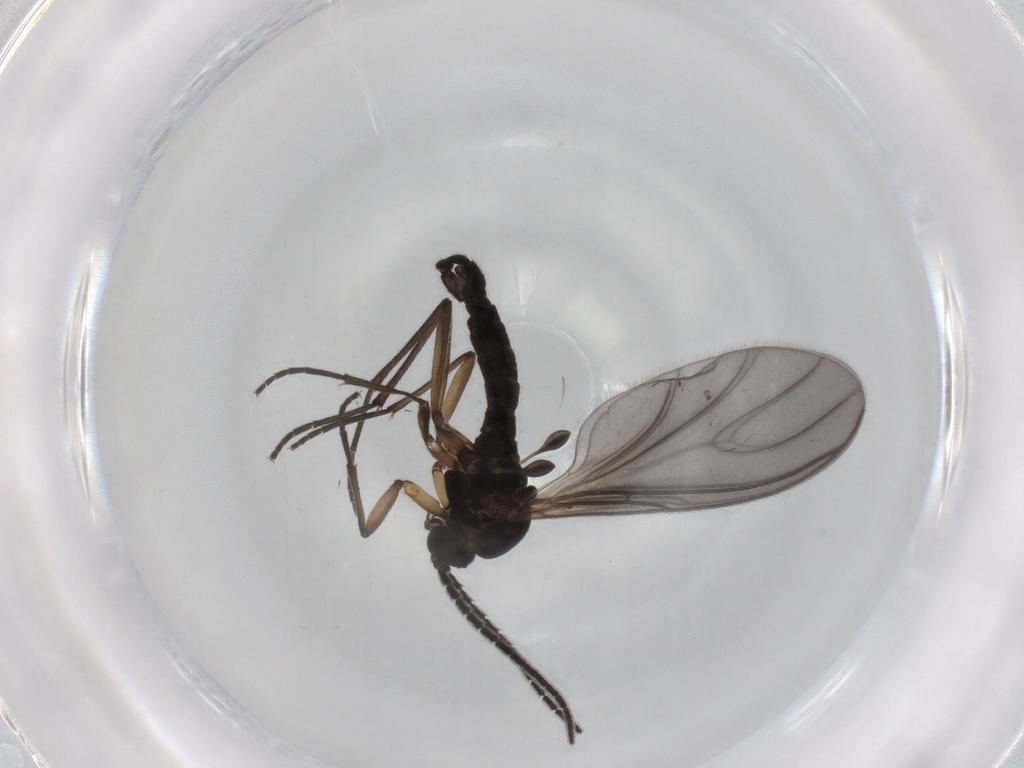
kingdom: Animalia
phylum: Arthropoda
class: Insecta
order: Diptera
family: Sciaridae
